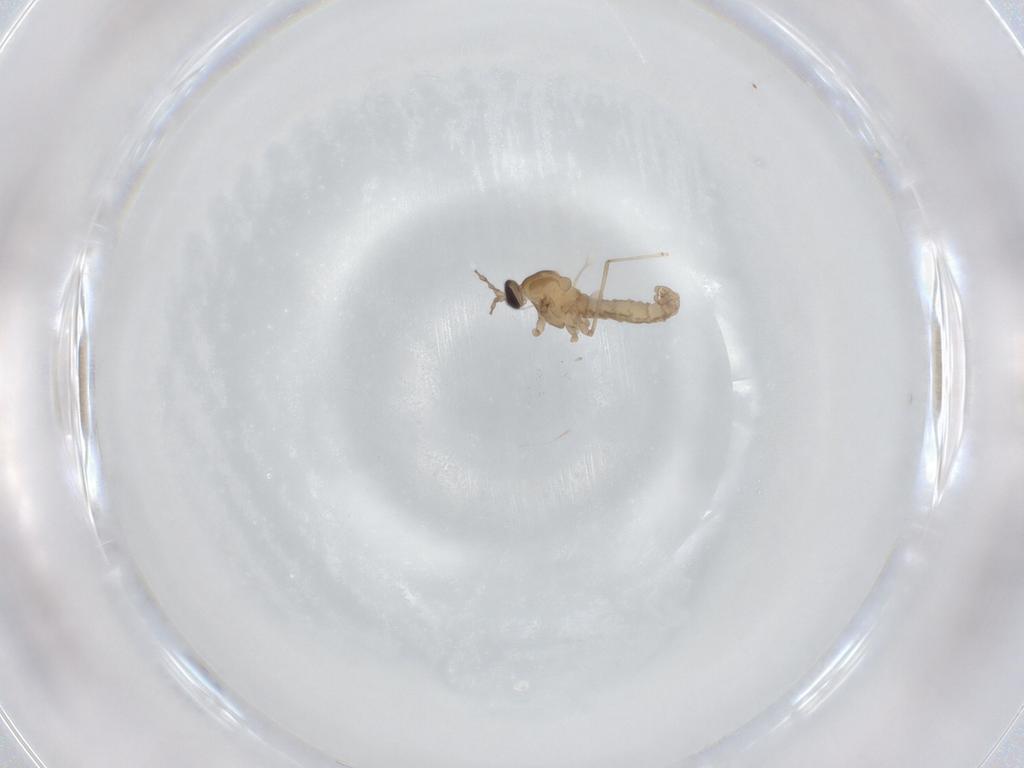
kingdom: Animalia
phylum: Arthropoda
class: Insecta
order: Diptera
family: Cecidomyiidae
